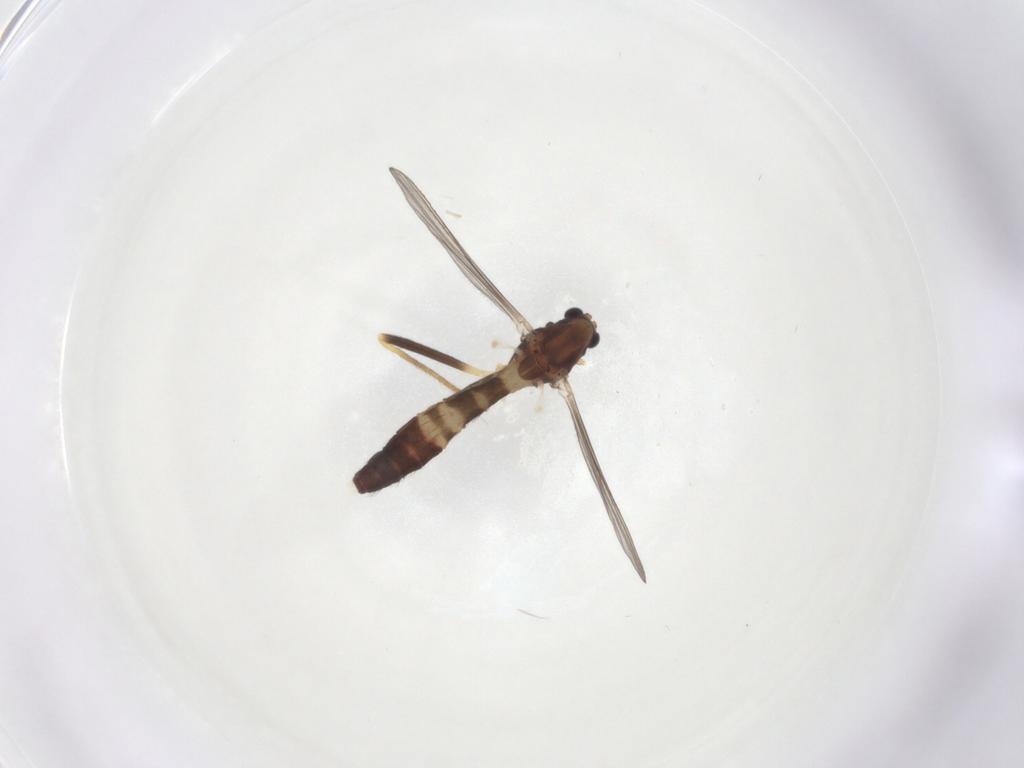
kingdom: Animalia
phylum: Arthropoda
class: Insecta
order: Diptera
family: Chironomidae
